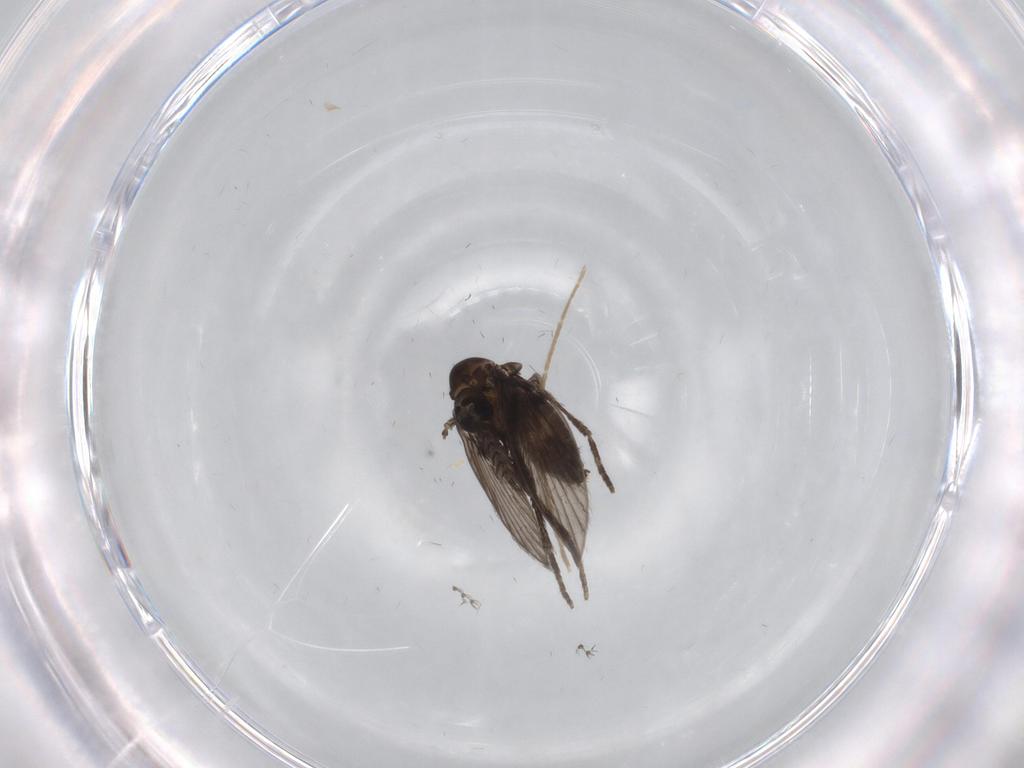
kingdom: Animalia
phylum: Arthropoda
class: Insecta
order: Diptera
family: Psychodidae
